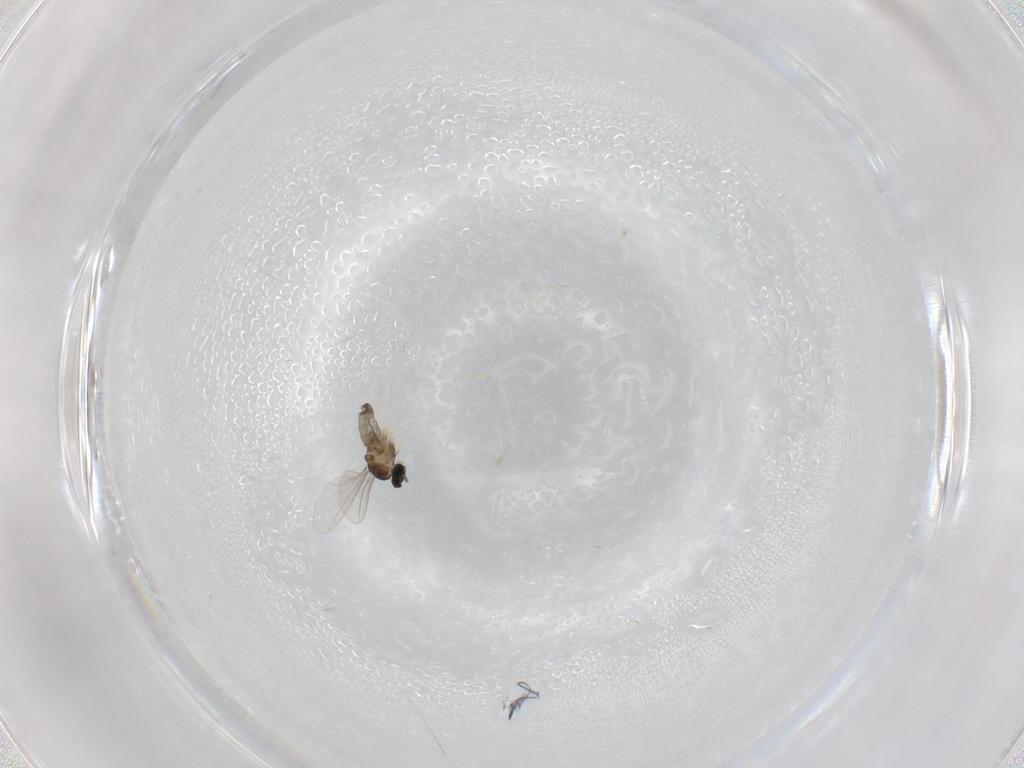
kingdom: Animalia
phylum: Arthropoda
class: Insecta
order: Diptera
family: Cecidomyiidae
